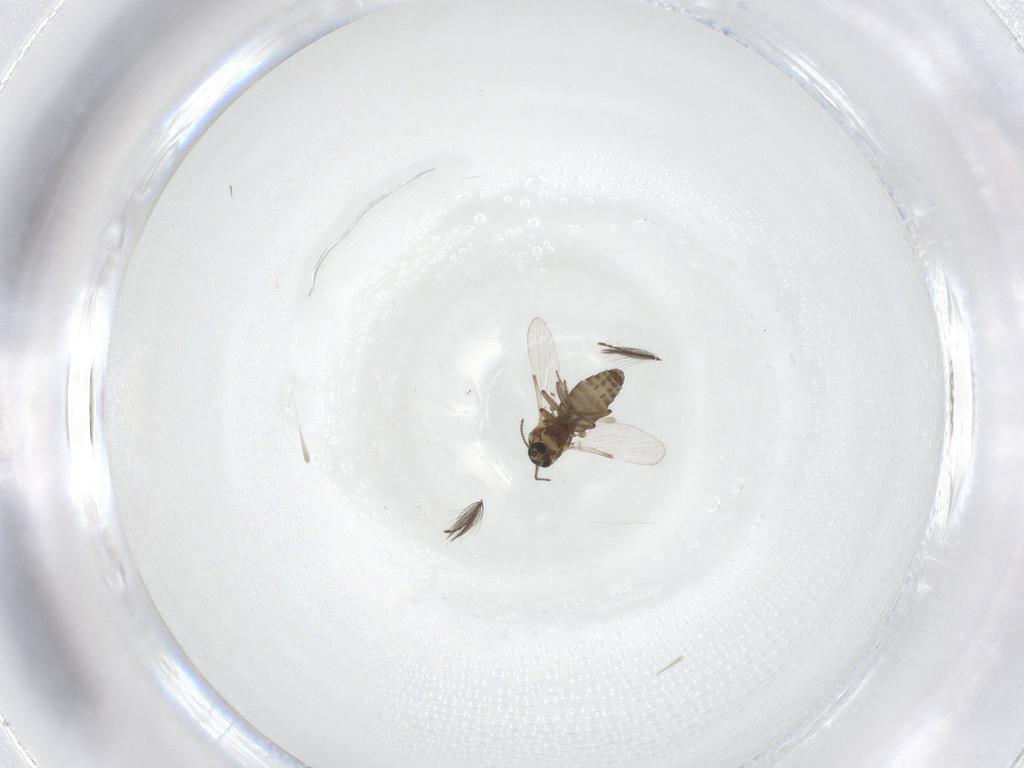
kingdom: Animalia
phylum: Arthropoda
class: Insecta
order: Diptera
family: Ceratopogonidae
